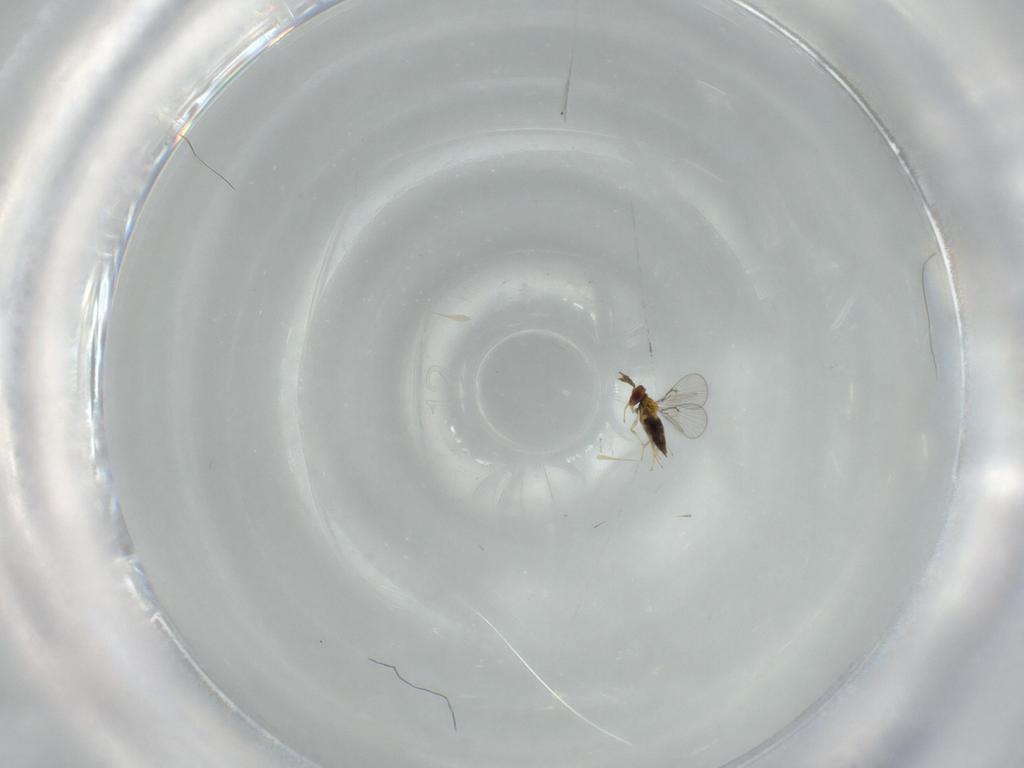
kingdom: Animalia
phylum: Arthropoda
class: Insecta
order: Hymenoptera
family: Trichogrammatidae
